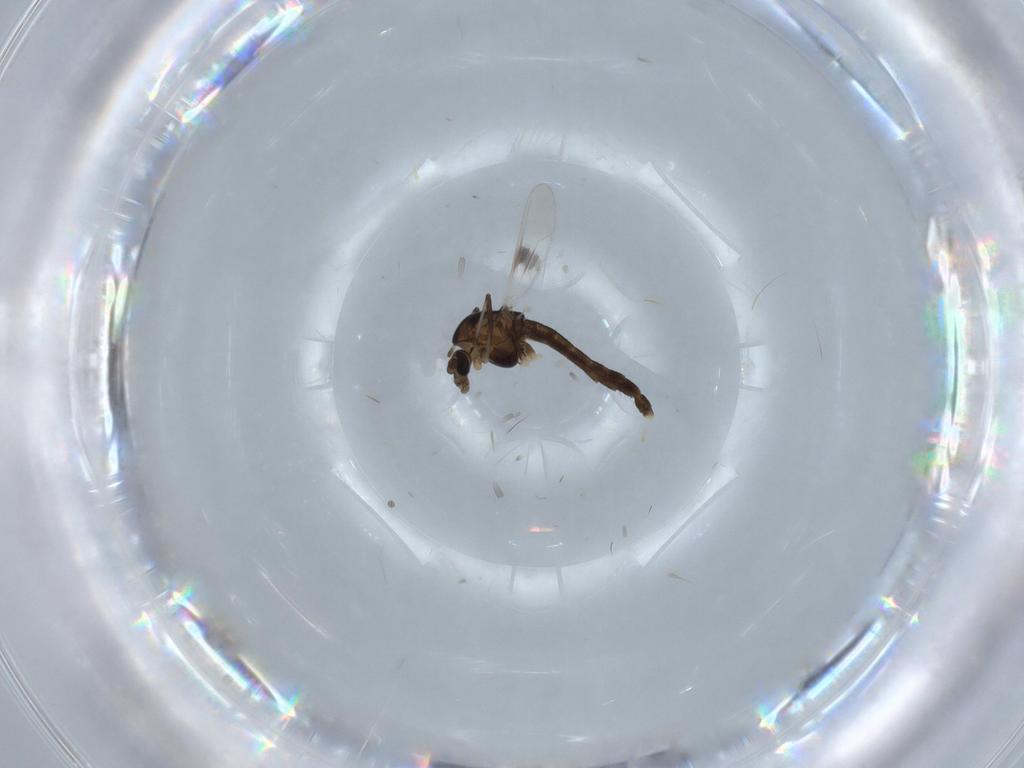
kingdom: Animalia
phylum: Arthropoda
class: Insecta
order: Diptera
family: Chironomidae
